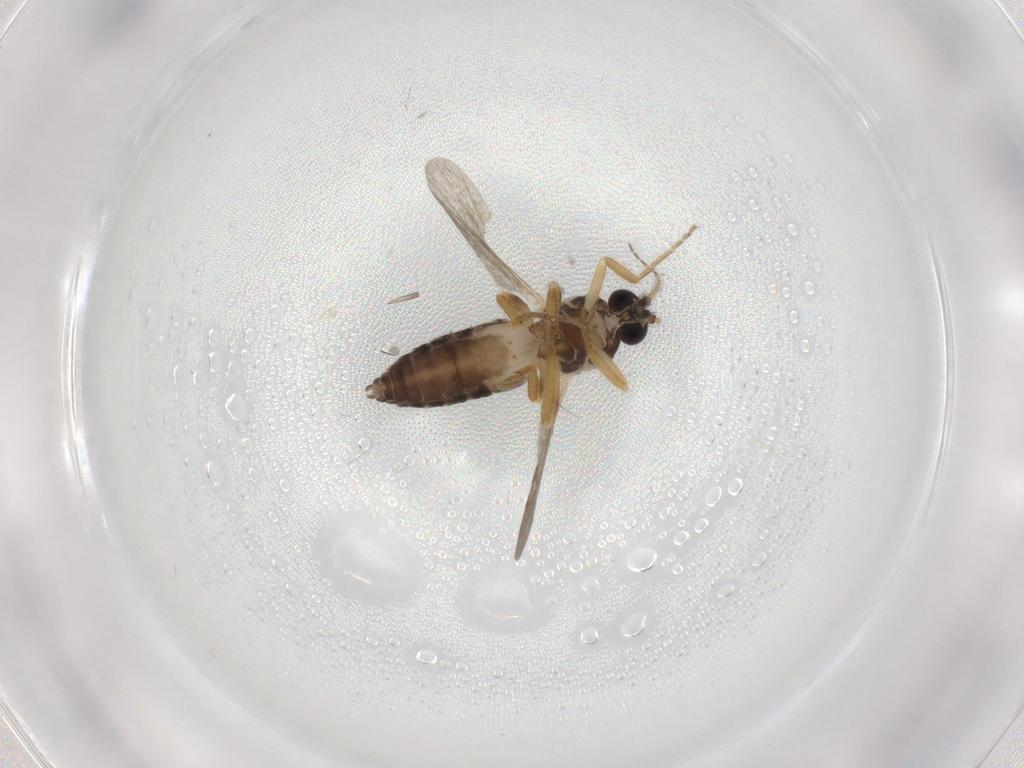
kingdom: Animalia
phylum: Arthropoda
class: Insecta
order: Diptera
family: Ceratopogonidae
